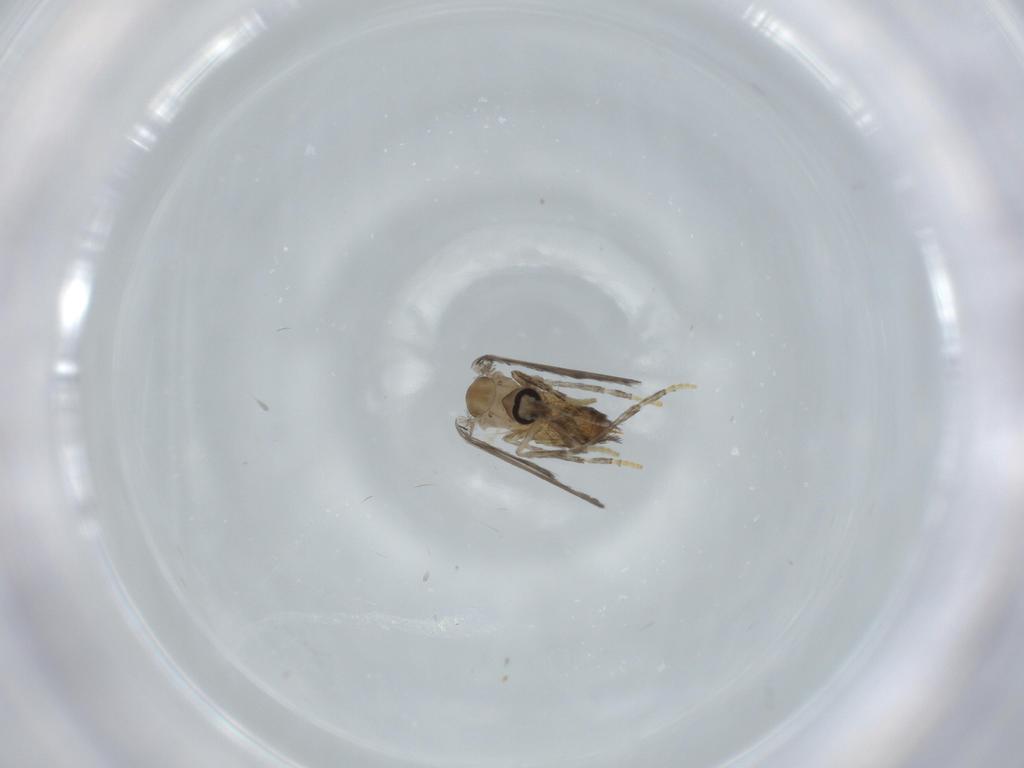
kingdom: Animalia
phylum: Arthropoda
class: Insecta
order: Diptera
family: Psychodidae
